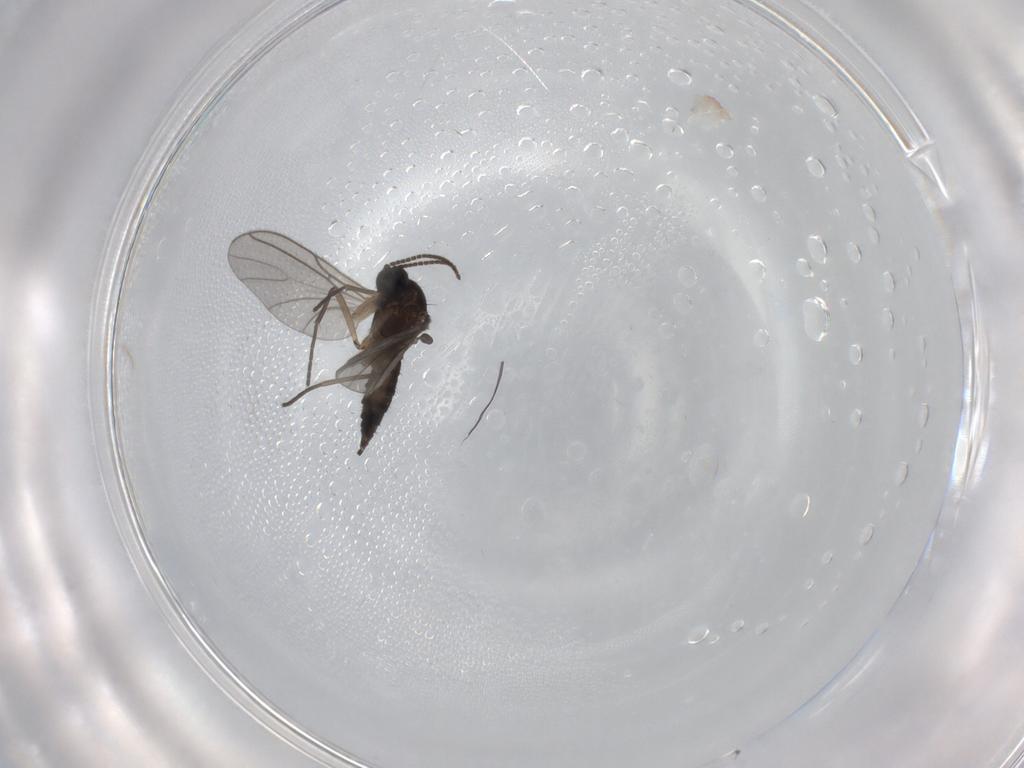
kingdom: Animalia
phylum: Arthropoda
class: Insecta
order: Diptera
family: Sciaridae
